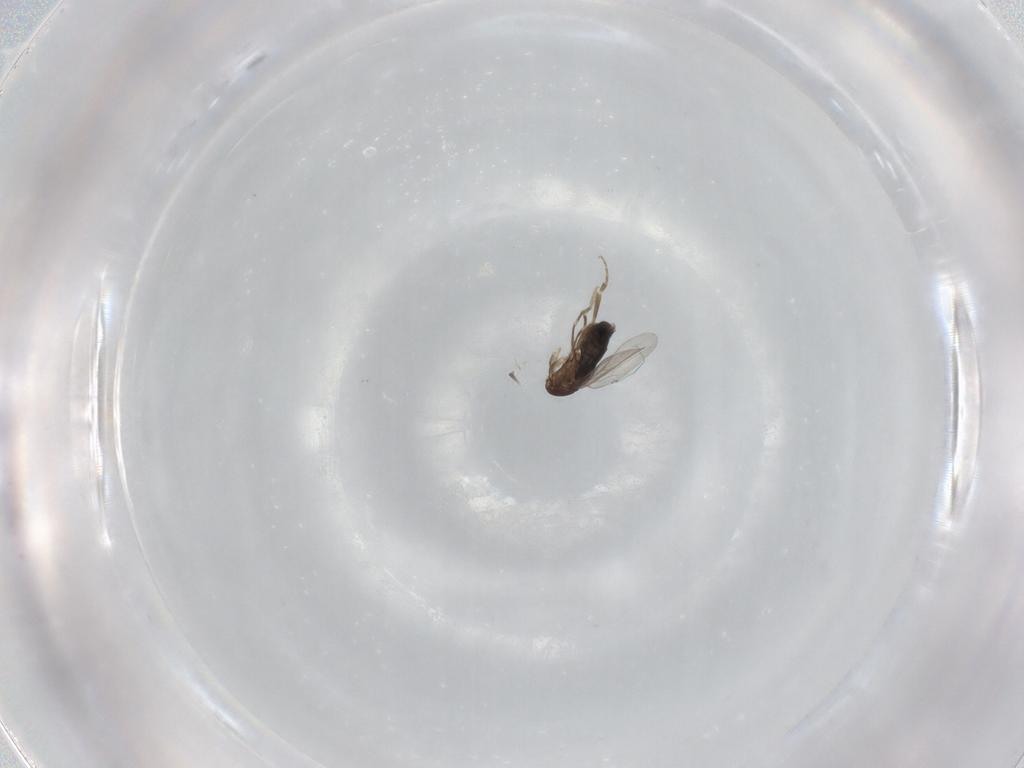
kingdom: Animalia
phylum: Arthropoda
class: Insecta
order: Diptera
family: Phoridae
